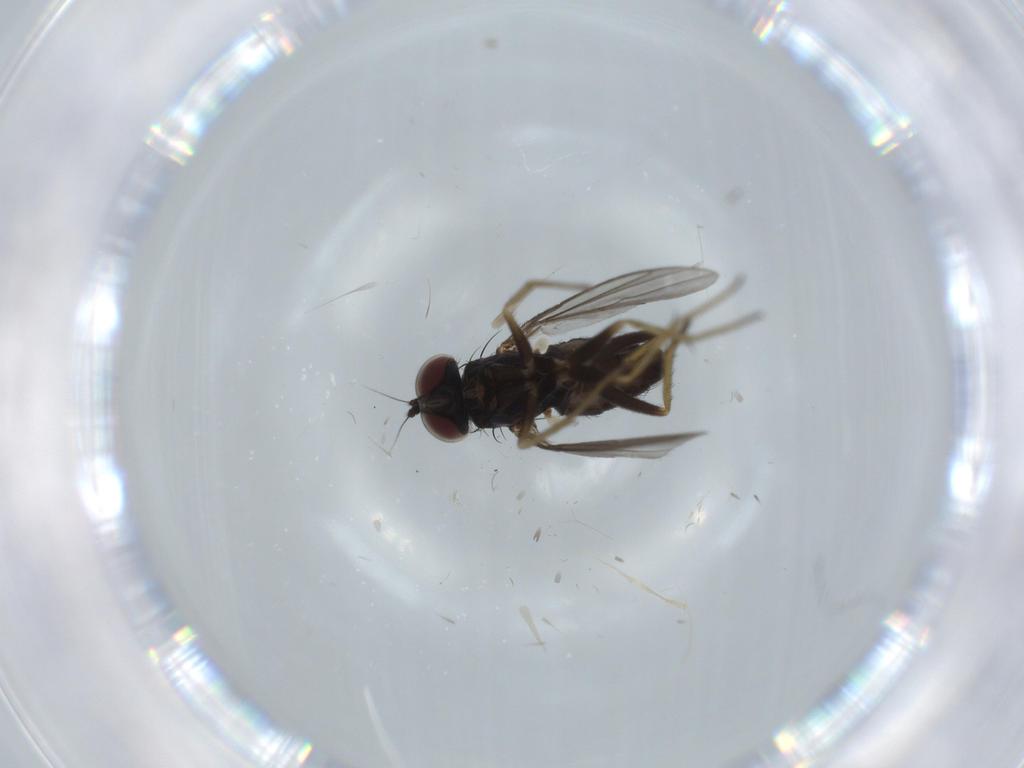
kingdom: Animalia
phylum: Arthropoda
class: Insecta
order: Diptera
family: Dolichopodidae
